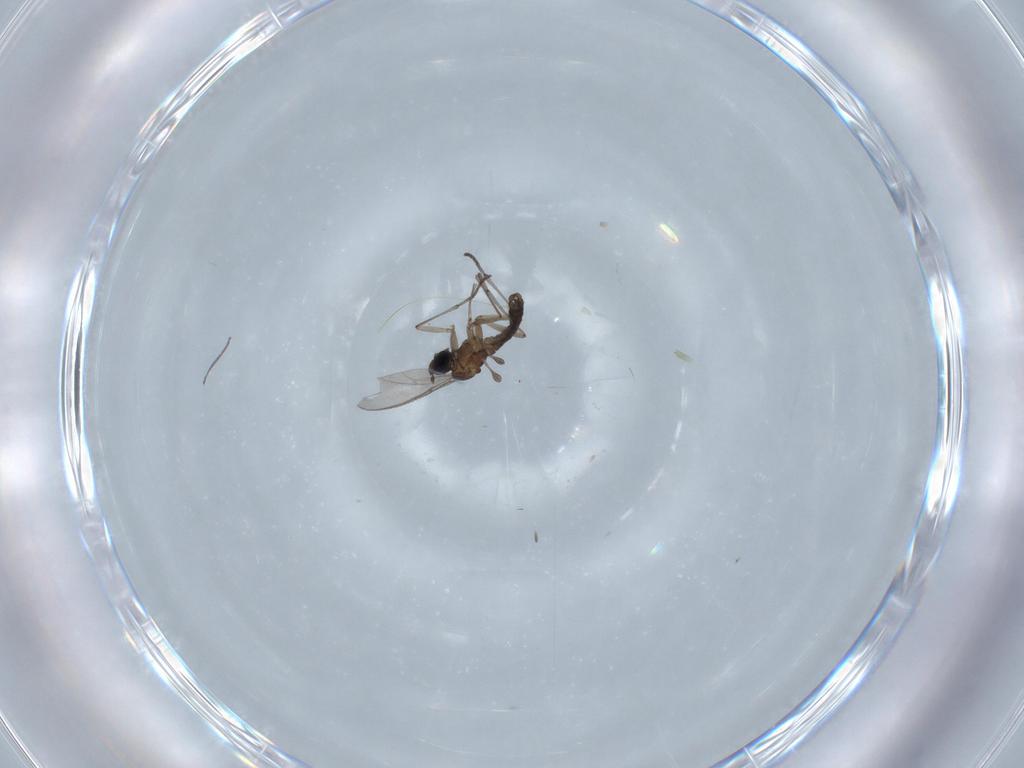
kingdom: Animalia
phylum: Arthropoda
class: Insecta
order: Diptera
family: Sciaridae
